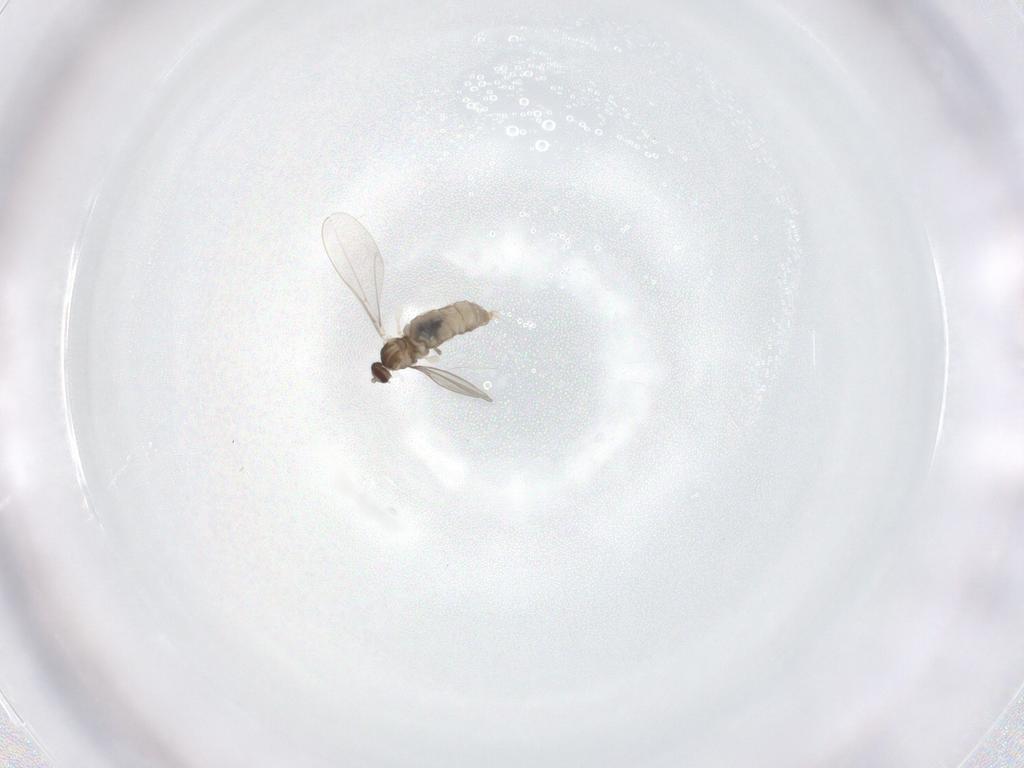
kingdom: Animalia
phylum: Arthropoda
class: Insecta
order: Diptera
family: Cecidomyiidae
